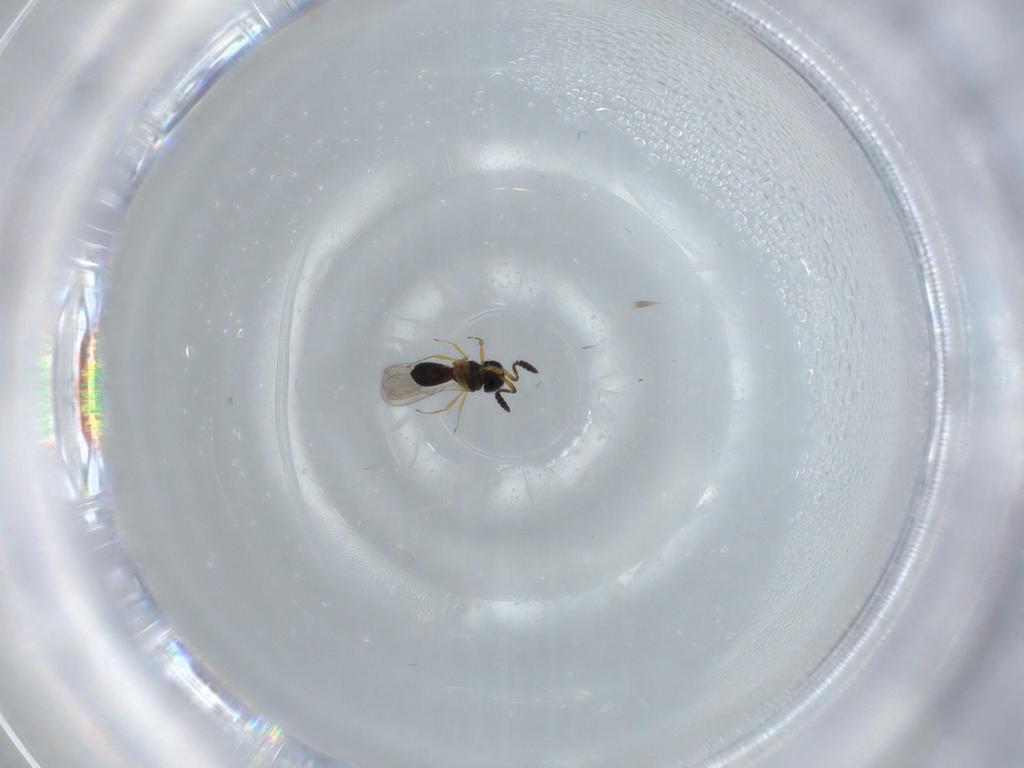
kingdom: Animalia
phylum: Arthropoda
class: Insecta
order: Hymenoptera
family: Scelionidae
